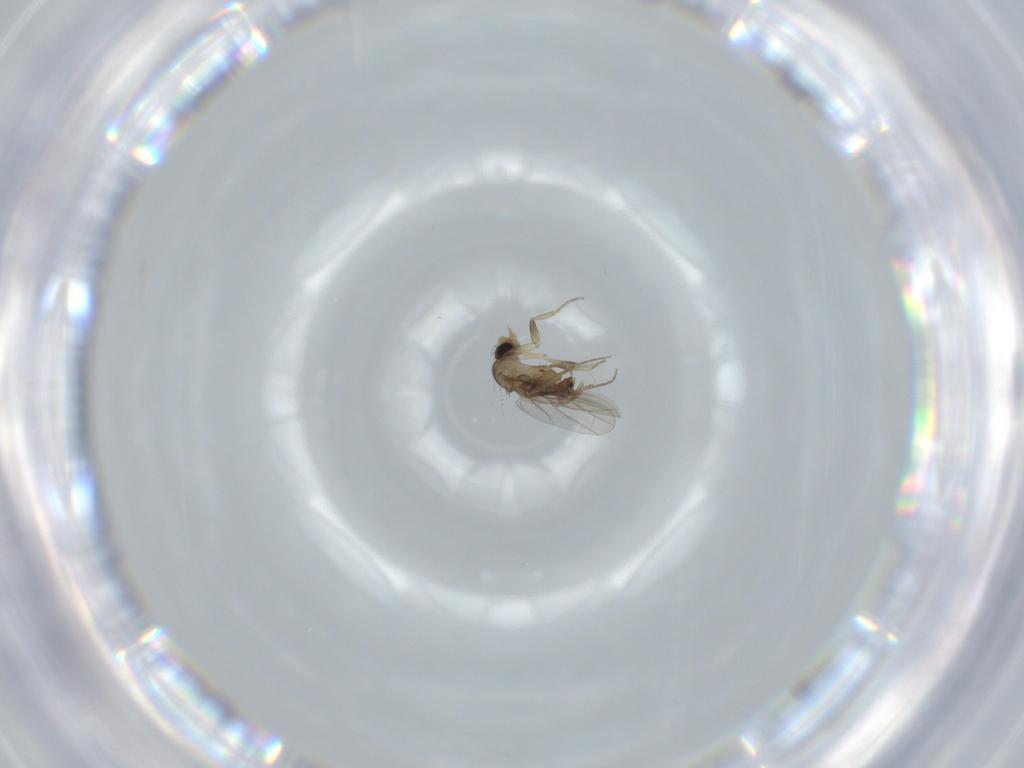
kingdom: Animalia
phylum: Arthropoda
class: Insecta
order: Diptera
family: Phoridae
